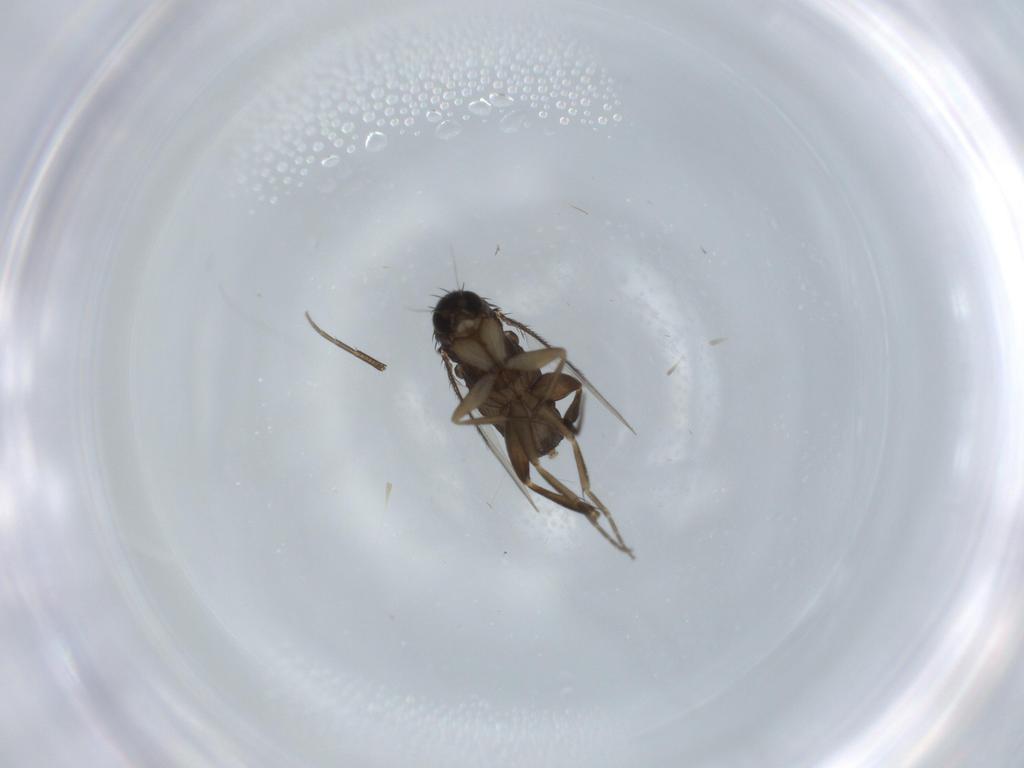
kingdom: Animalia
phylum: Arthropoda
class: Insecta
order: Diptera
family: Phoridae
